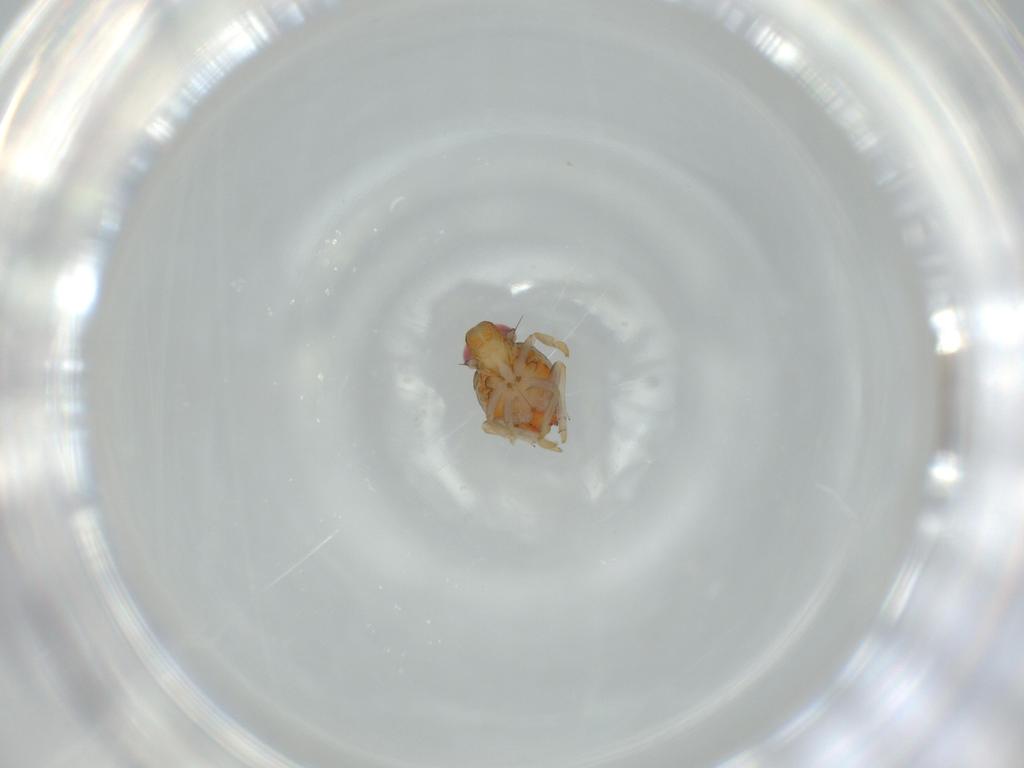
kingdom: Animalia
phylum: Arthropoda
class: Insecta
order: Hemiptera
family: Issidae
